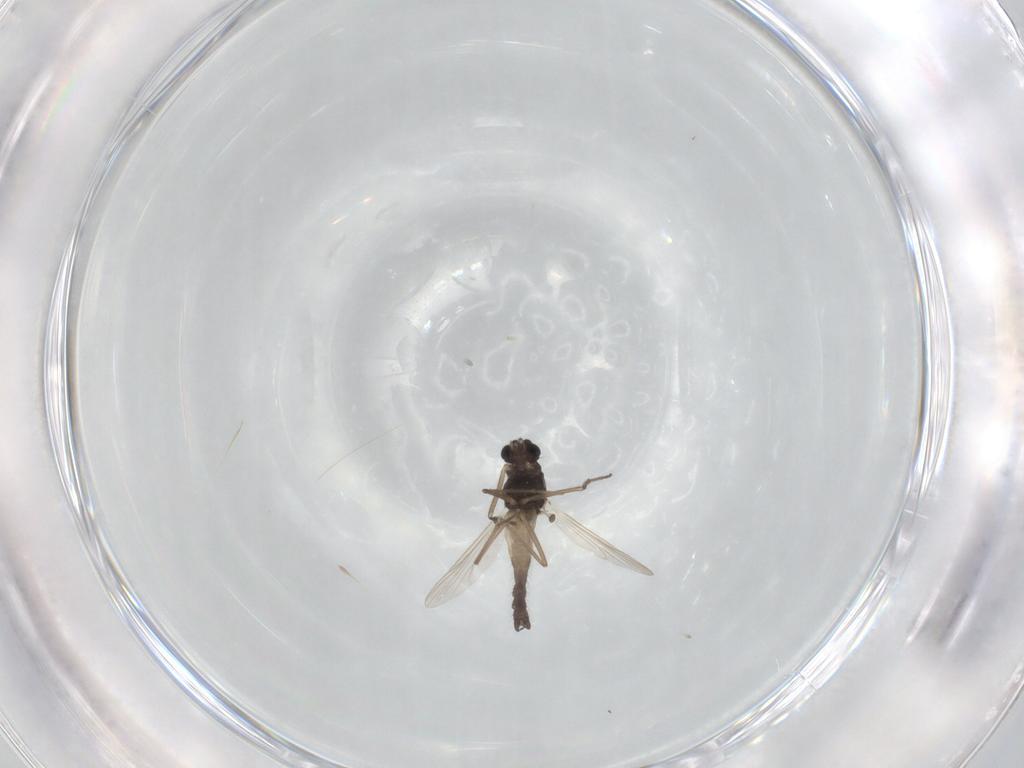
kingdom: Animalia
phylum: Arthropoda
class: Insecta
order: Diptera
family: Chironomidae
